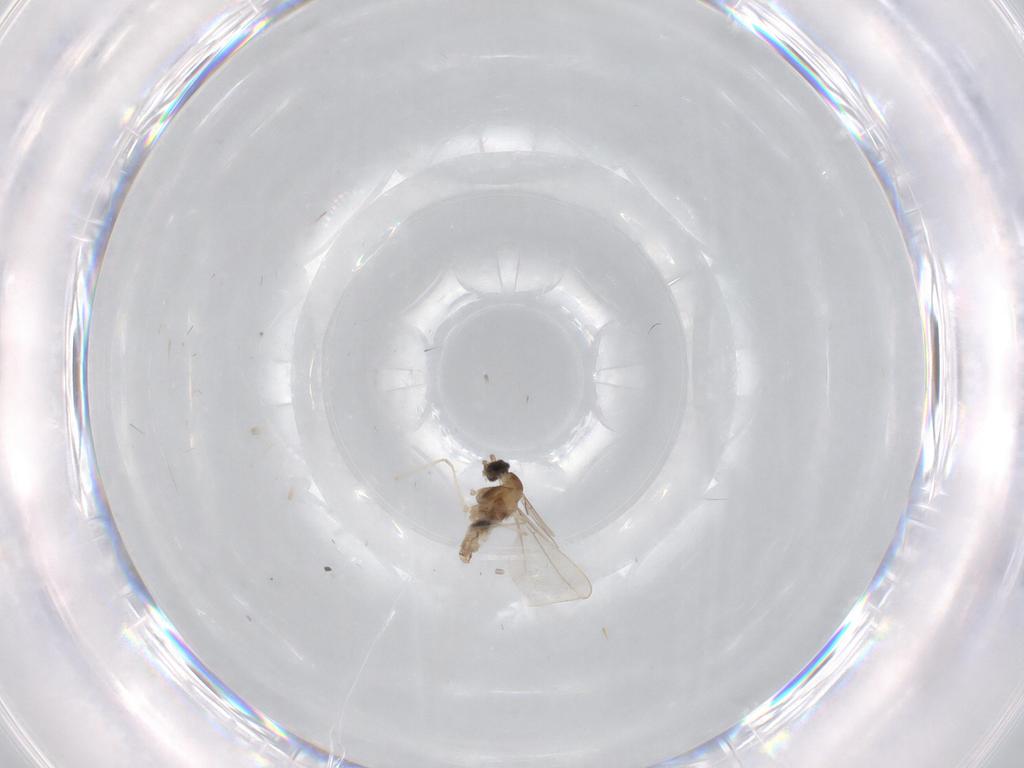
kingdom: Animalia
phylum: Arthropoda
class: Insecta
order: Diptera
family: Cecidomyiidae
